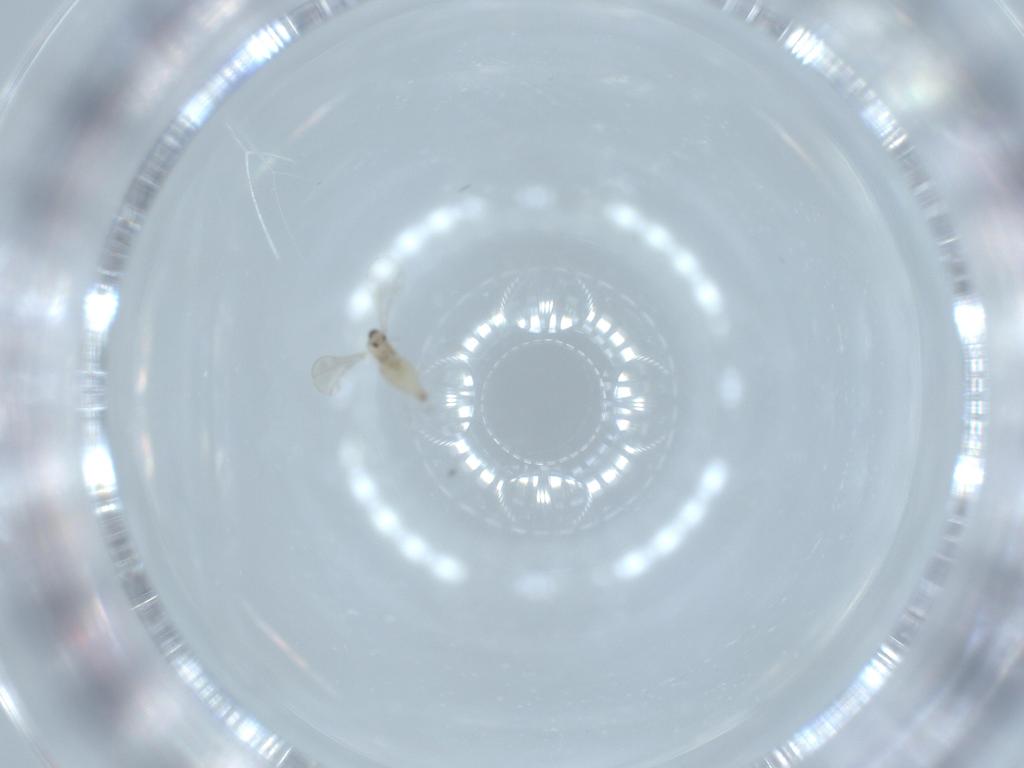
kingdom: Animalia
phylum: Arthropoda
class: Insecta
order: Diptera
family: Cecidomyiidae
